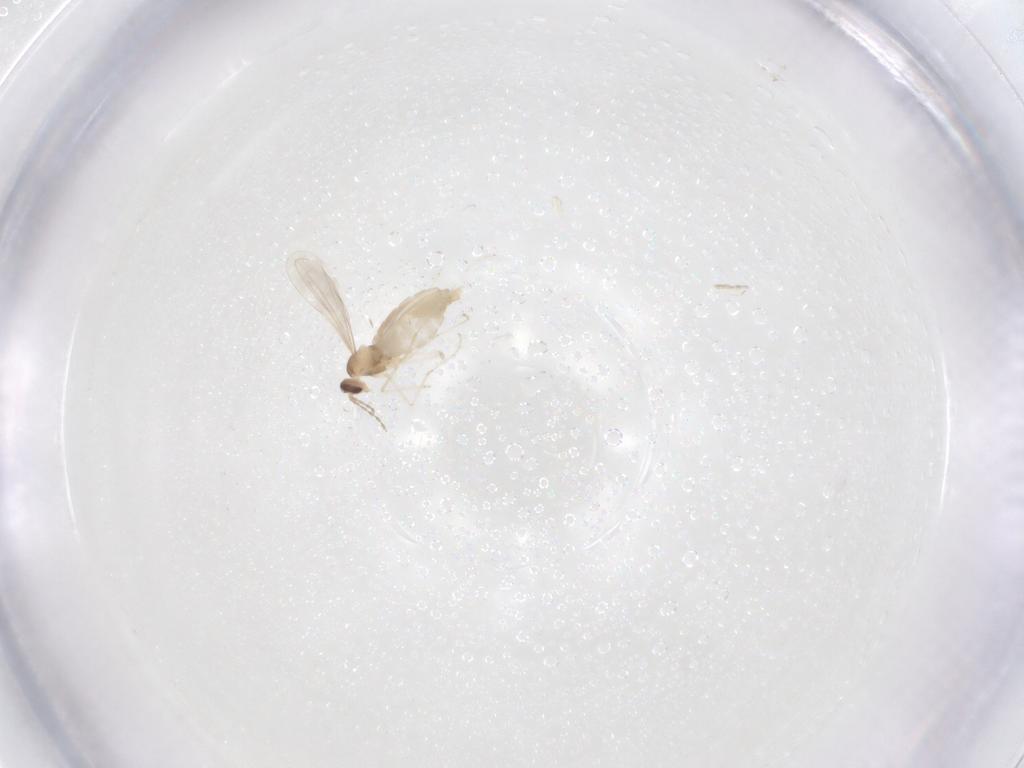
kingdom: Animalia
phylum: Arthropoda
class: Insecta
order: Diptera
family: Cecidomyiidae
